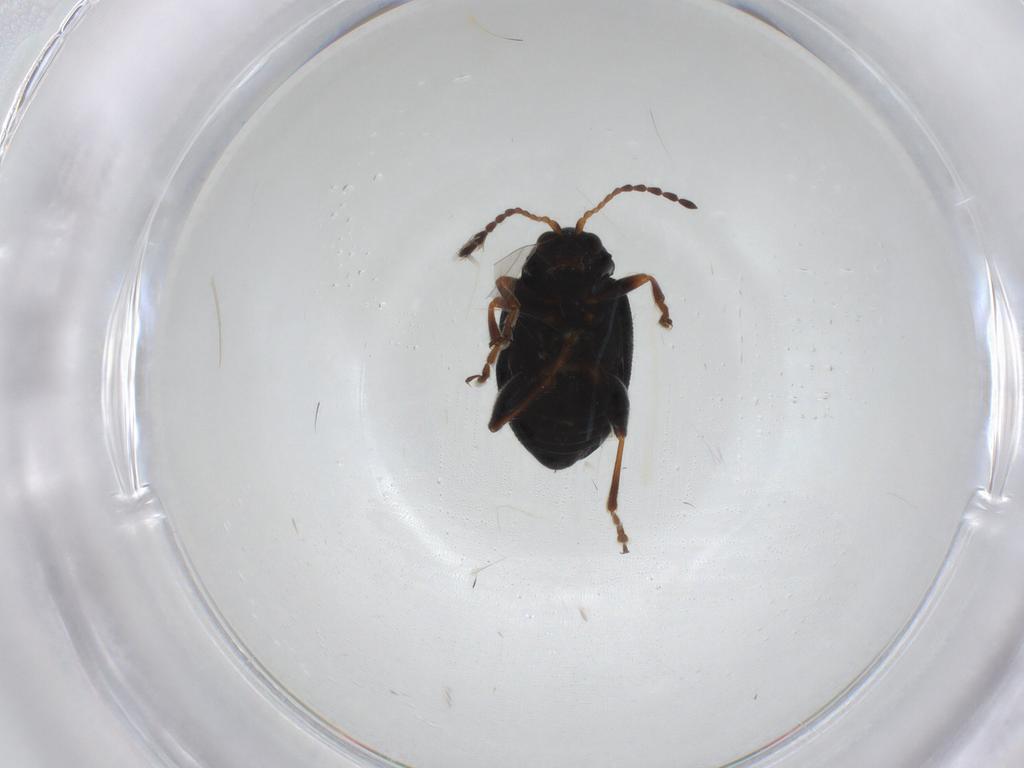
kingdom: Animalia
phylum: Arthropoda
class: Insecta
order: Coleoptera
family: Chrysomelidae
